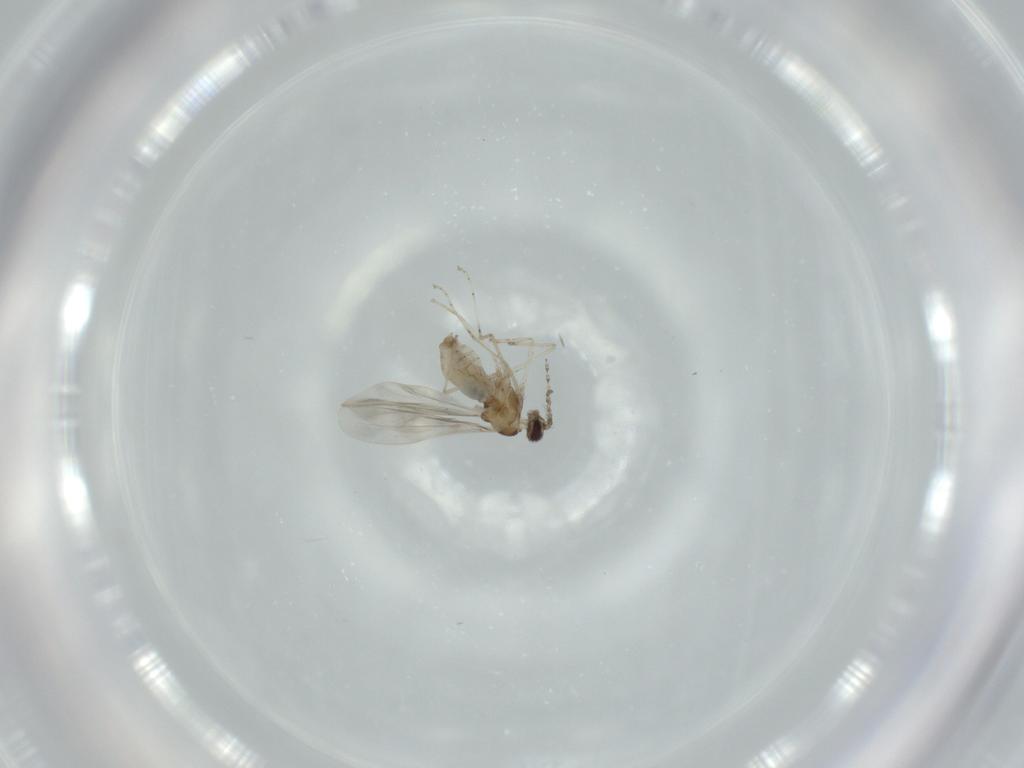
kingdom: Animalia
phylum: Arthropoda
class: Insecta
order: Diptera
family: Cecidomyiidae
